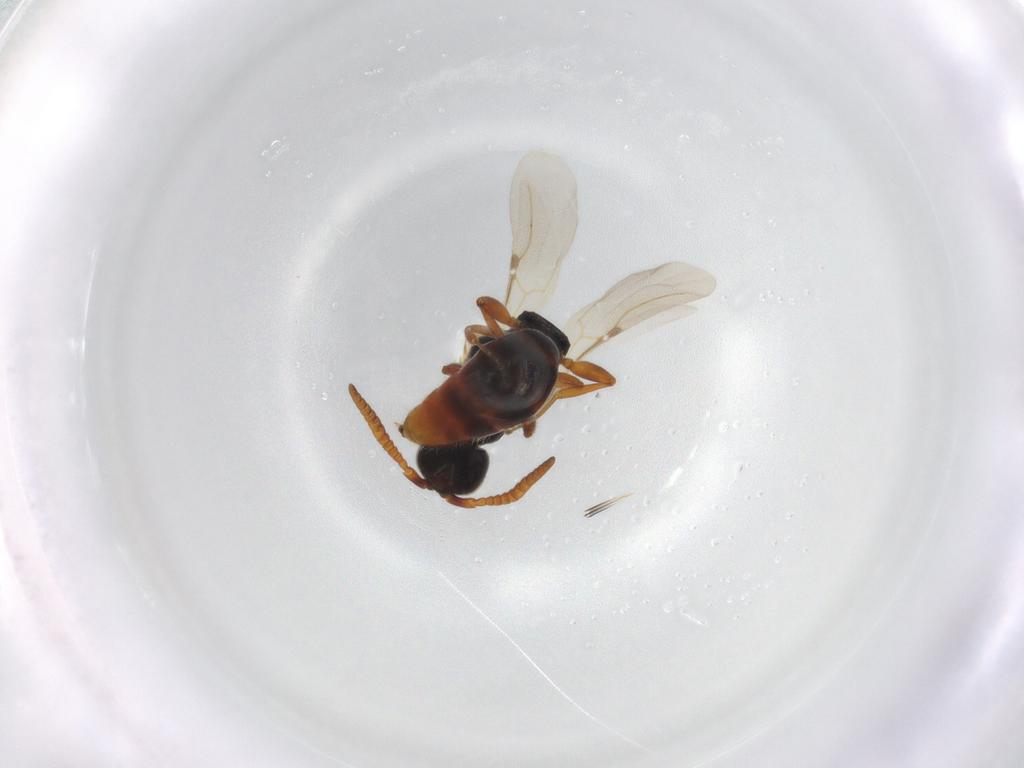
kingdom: Animalia
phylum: Arthropoda
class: Insecta
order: Hymenoptera
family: Bethylidae
